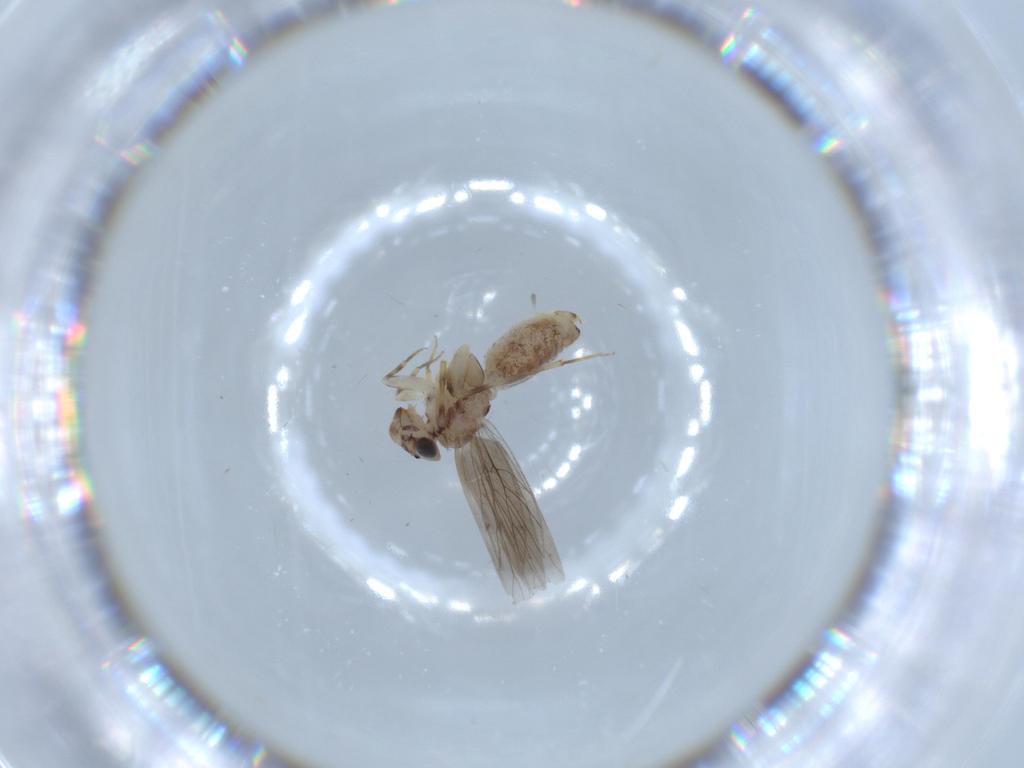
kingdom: Animalia
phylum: Arthropoda
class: Insecta
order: Psocodea
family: Lepidopsocidae
